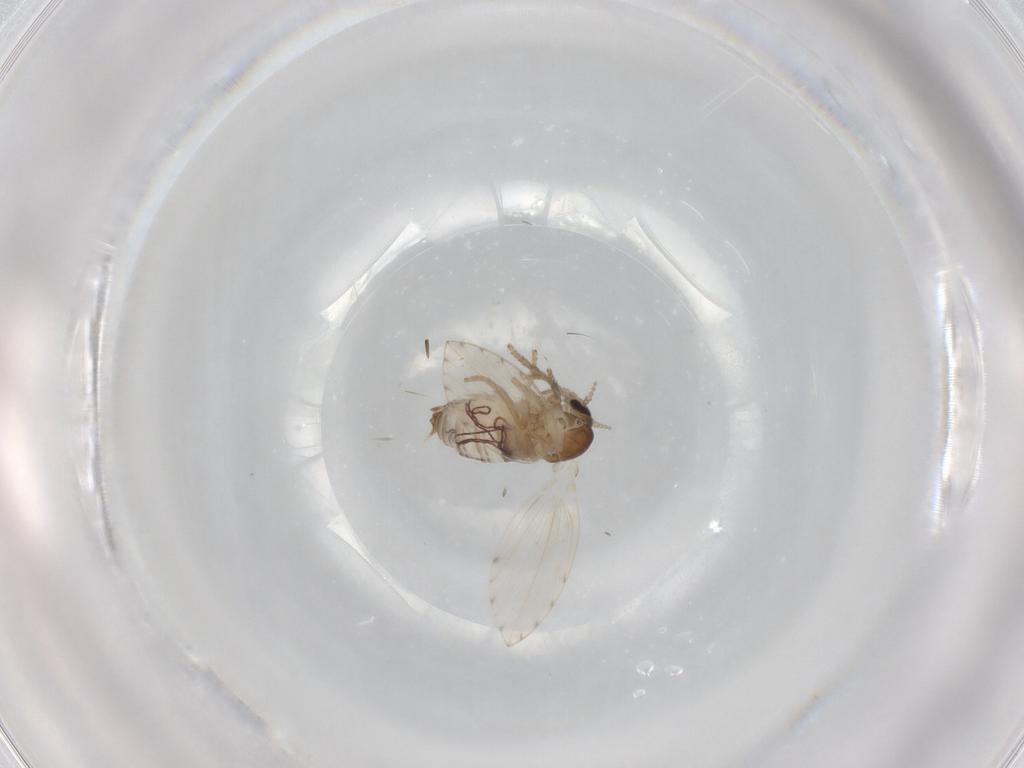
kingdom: Animalia
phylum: Arthropoda
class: Insecta
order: Diptera
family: Psychodidae
